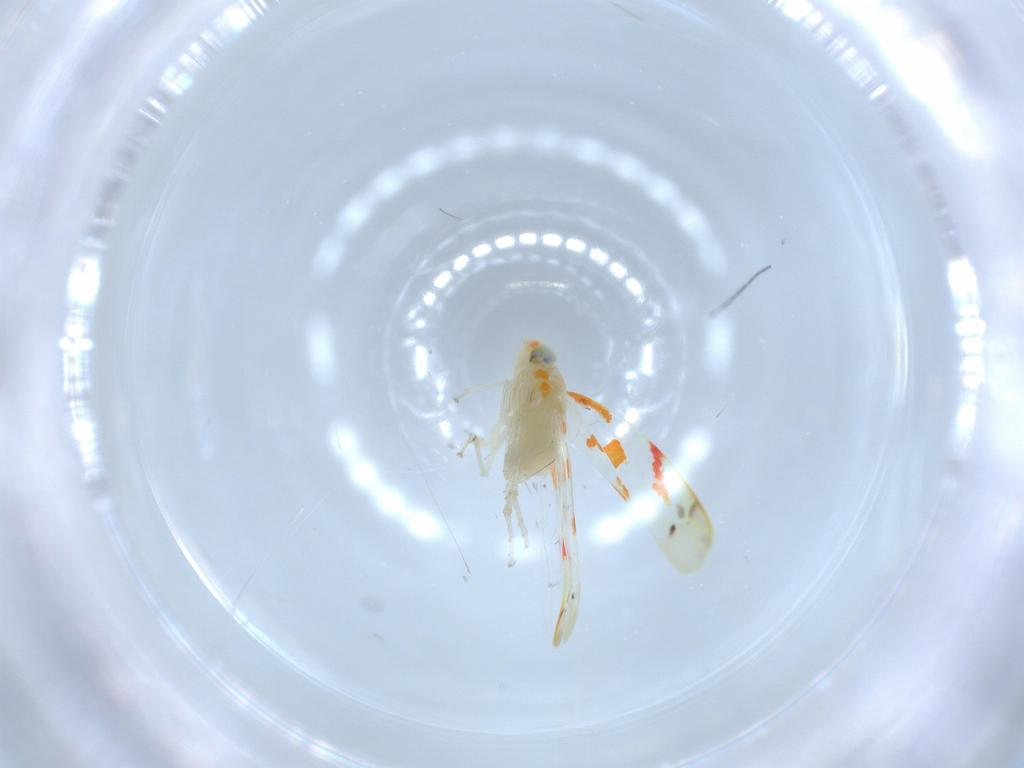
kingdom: Animalia
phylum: Arthropoda
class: Insecta
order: Hemiptera
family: Cicadellidae
